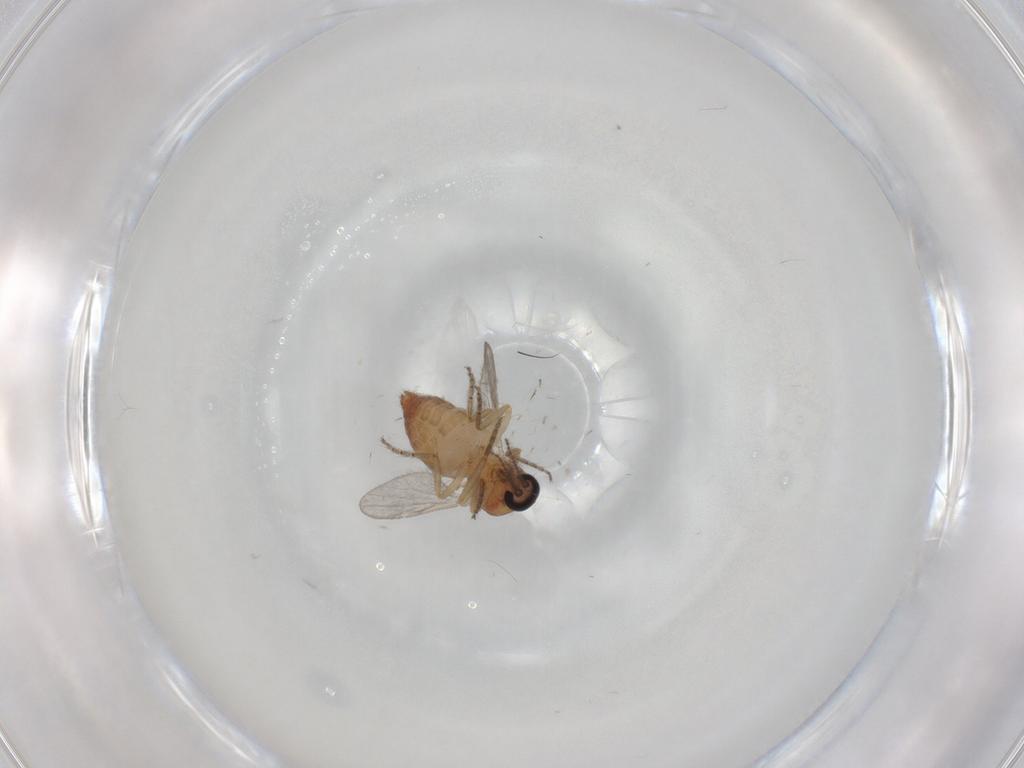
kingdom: Animalia
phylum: Arthropoda
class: Insecta
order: Diptera
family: Ceratopogonidae
